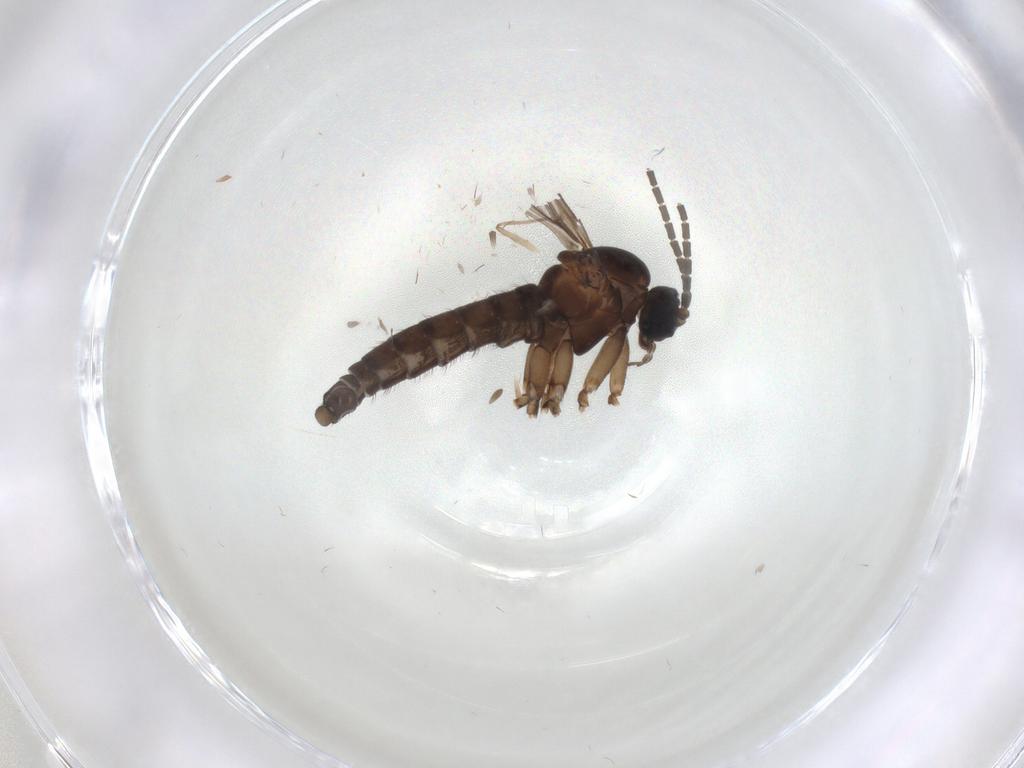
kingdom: Animalia
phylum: Arthropoda
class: Insecta
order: Diptera
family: Sciaridae
